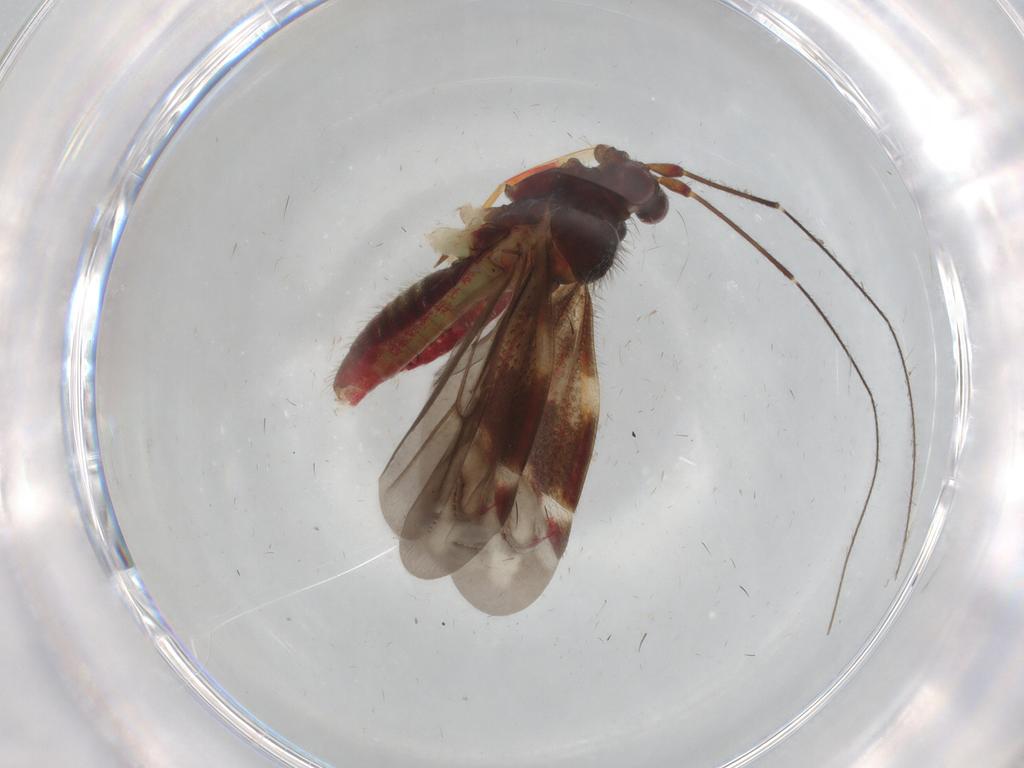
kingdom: Animalia
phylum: Arthropoda
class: Insecta
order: Hemiptera
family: Miridae
